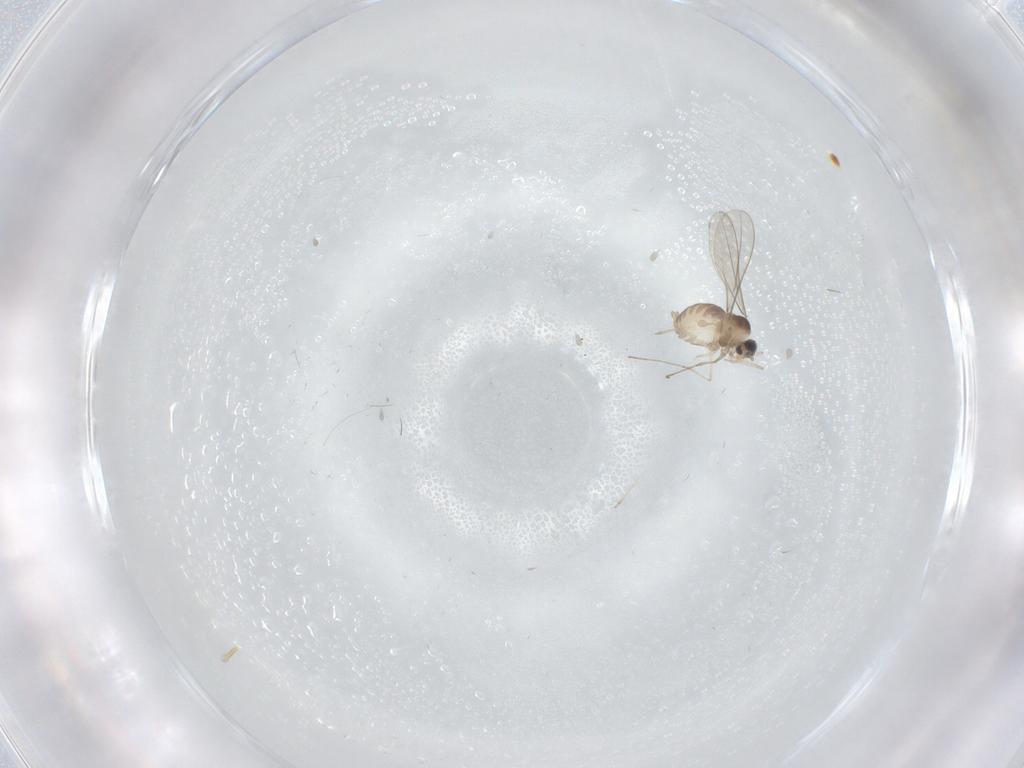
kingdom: Animalia
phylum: Arthropoda
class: Insecta
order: Diptera
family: Cecidomyiidae
